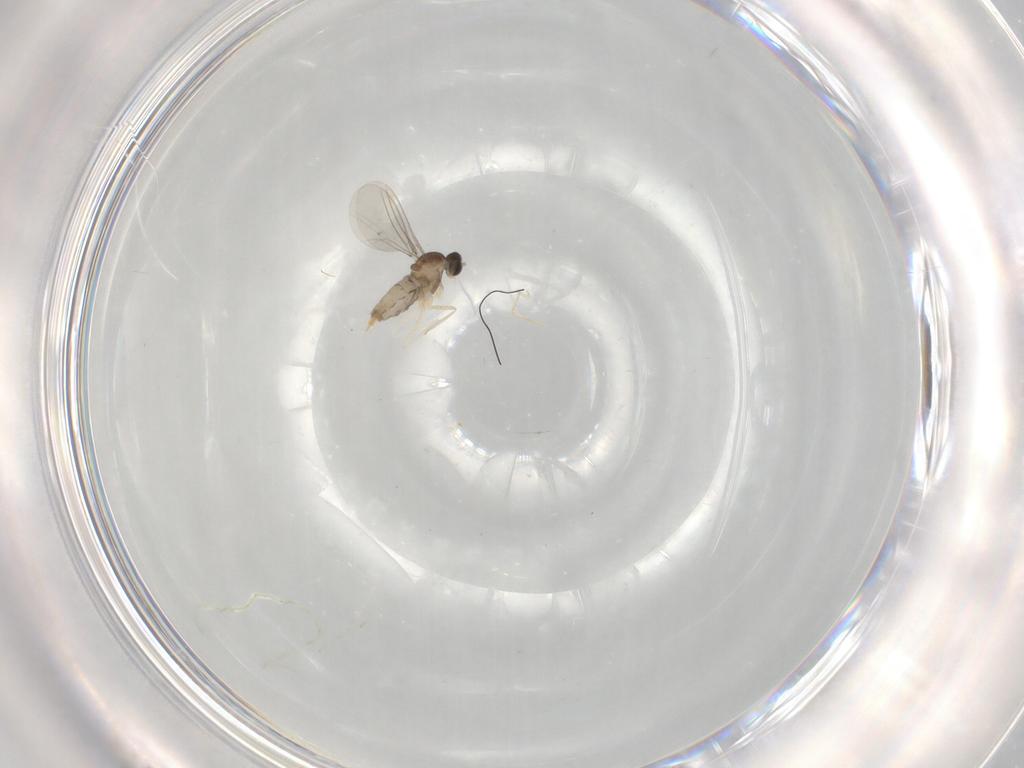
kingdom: Animalia
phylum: Arthropoda
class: Insecta
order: Diptera
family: Cecidomyiidae
